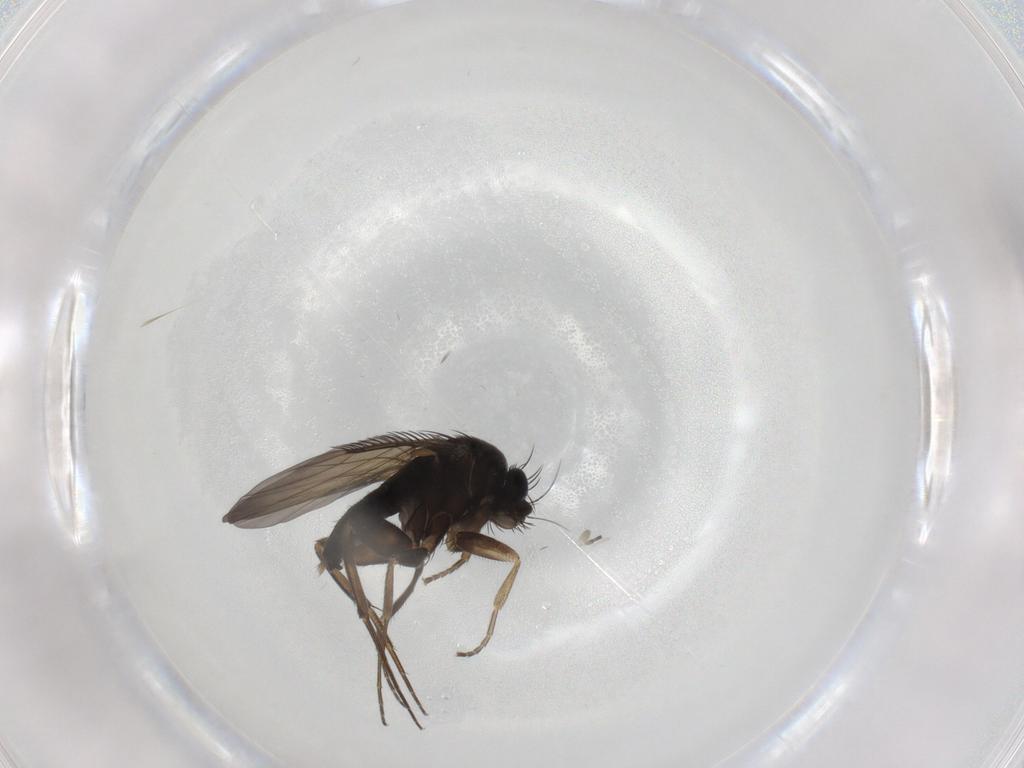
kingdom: Animalia
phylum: Arthropoda
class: Insecta
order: Diptera
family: Phoridae
